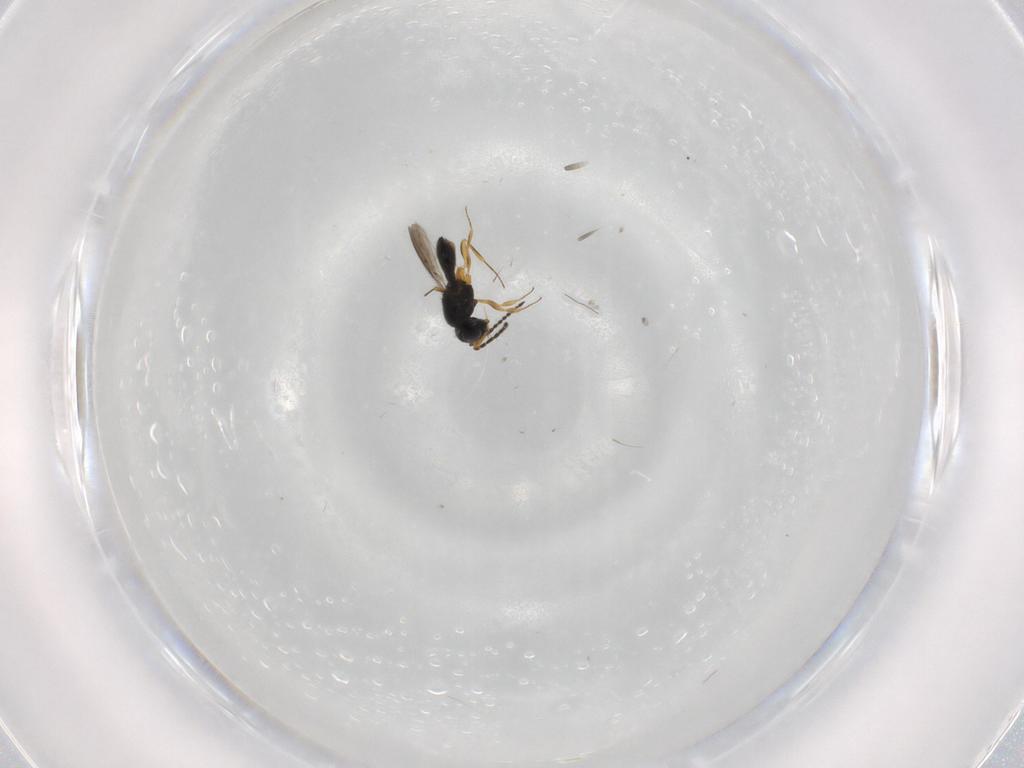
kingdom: Animalia
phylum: Arthropoda
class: Insecta
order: Hymenoptera
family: Scelionidae
